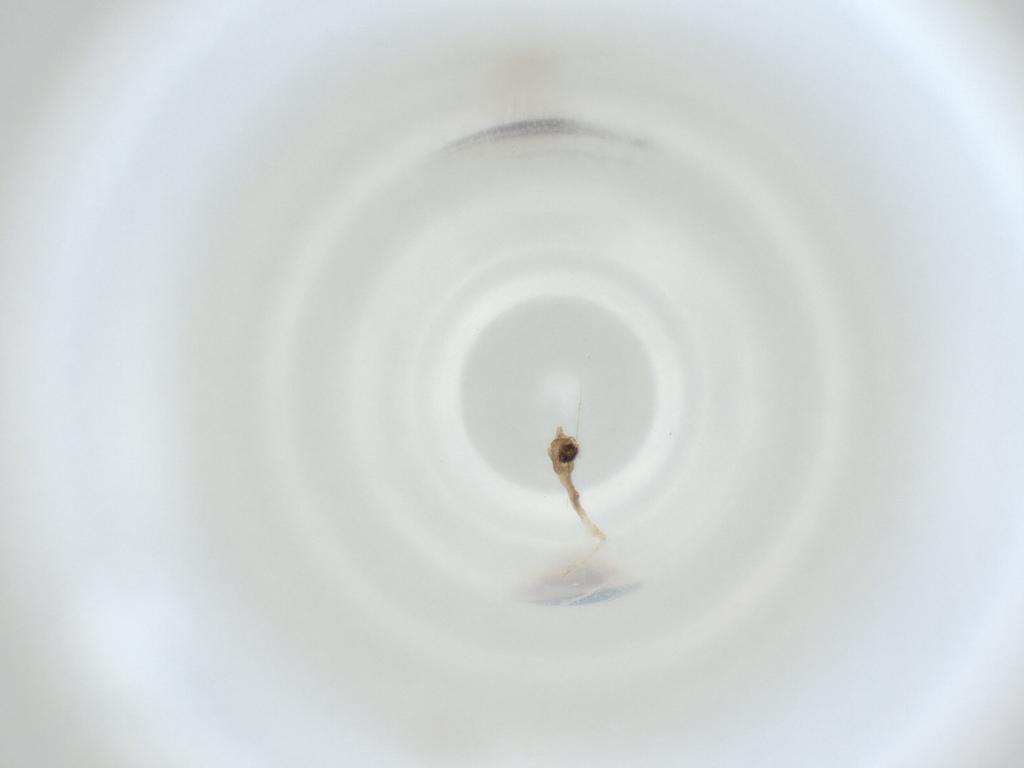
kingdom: Animalia
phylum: Arthropoda
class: Insecta
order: Diptera
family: Cecidomyiidae
